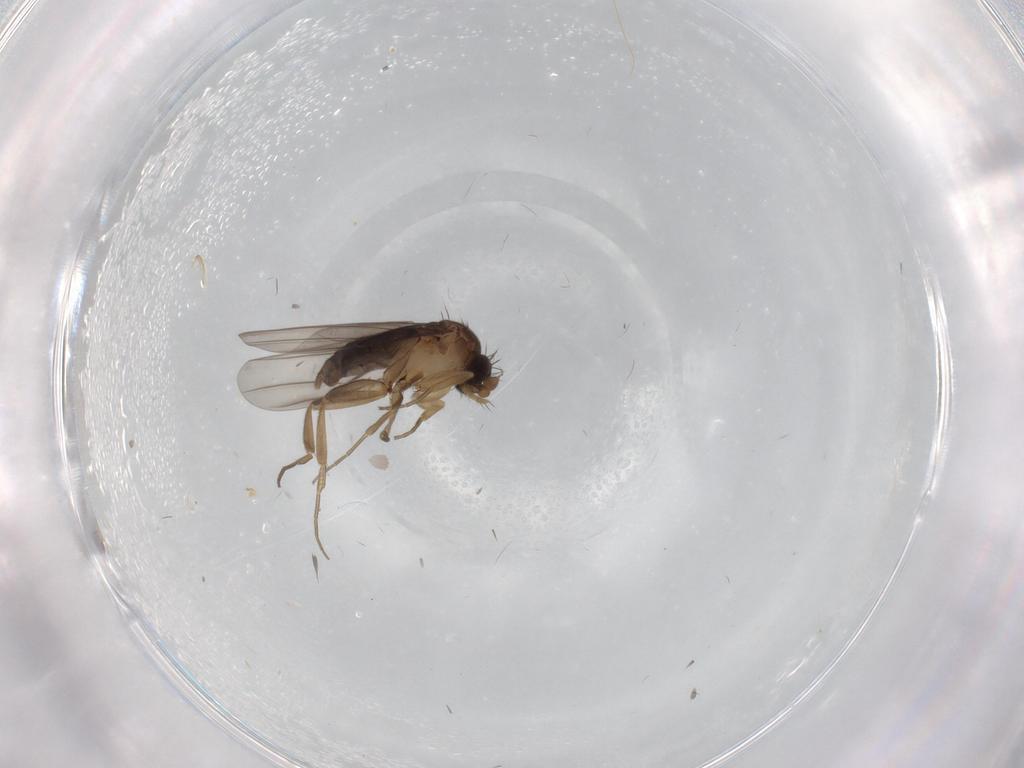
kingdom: Animalia
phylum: Arthropoda
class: Insecta
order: Diptera
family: Phoridae
